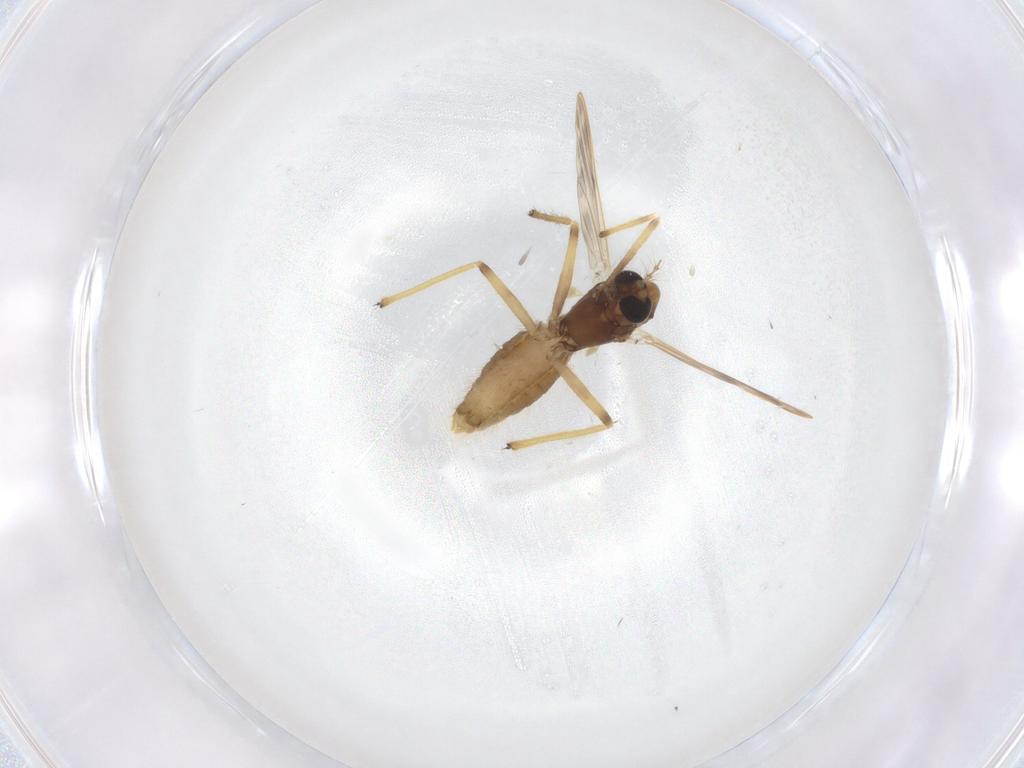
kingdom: Animalia
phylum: Arthropoda
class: Insecta
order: Diptera
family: Chironomidae
